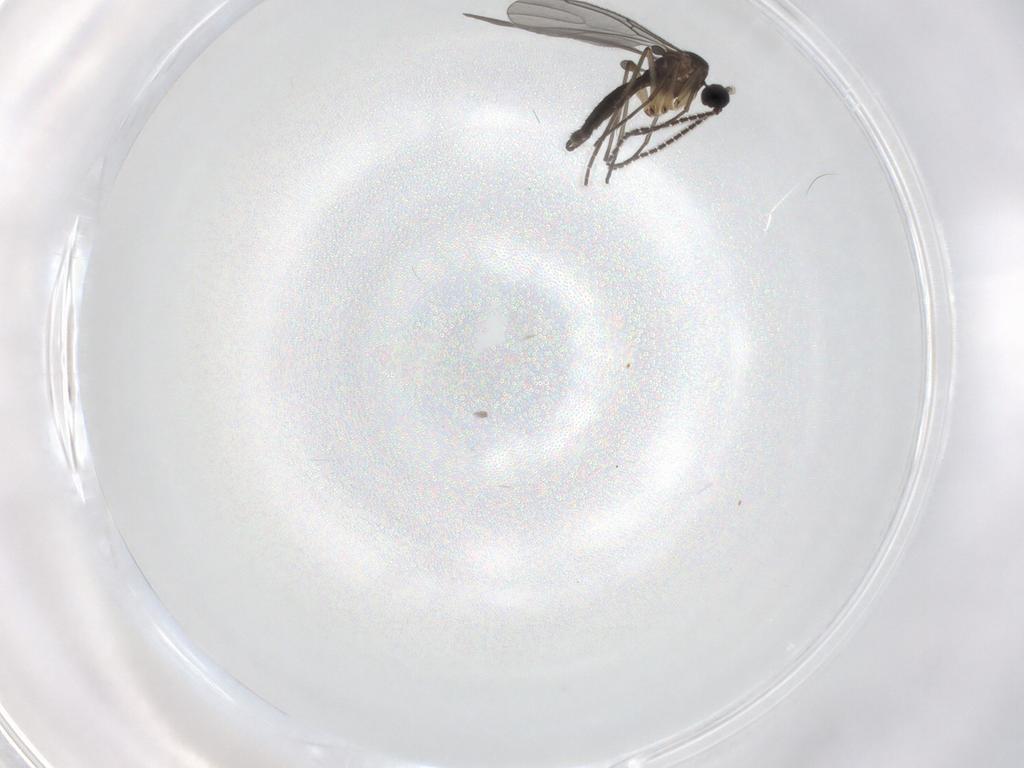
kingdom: Animalia
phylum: Arthropoda
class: Insecta
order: Diptera
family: Sciaridae
